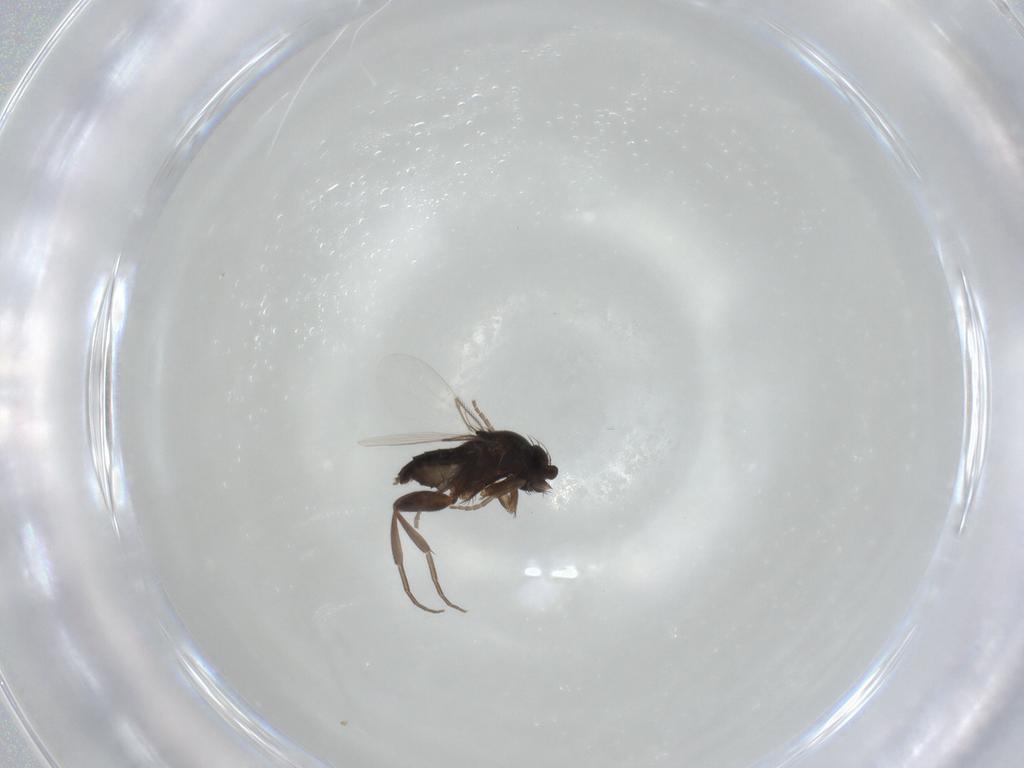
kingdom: Animalia
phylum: Arthropoda
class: Insecta
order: Diptera
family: Phoridae
